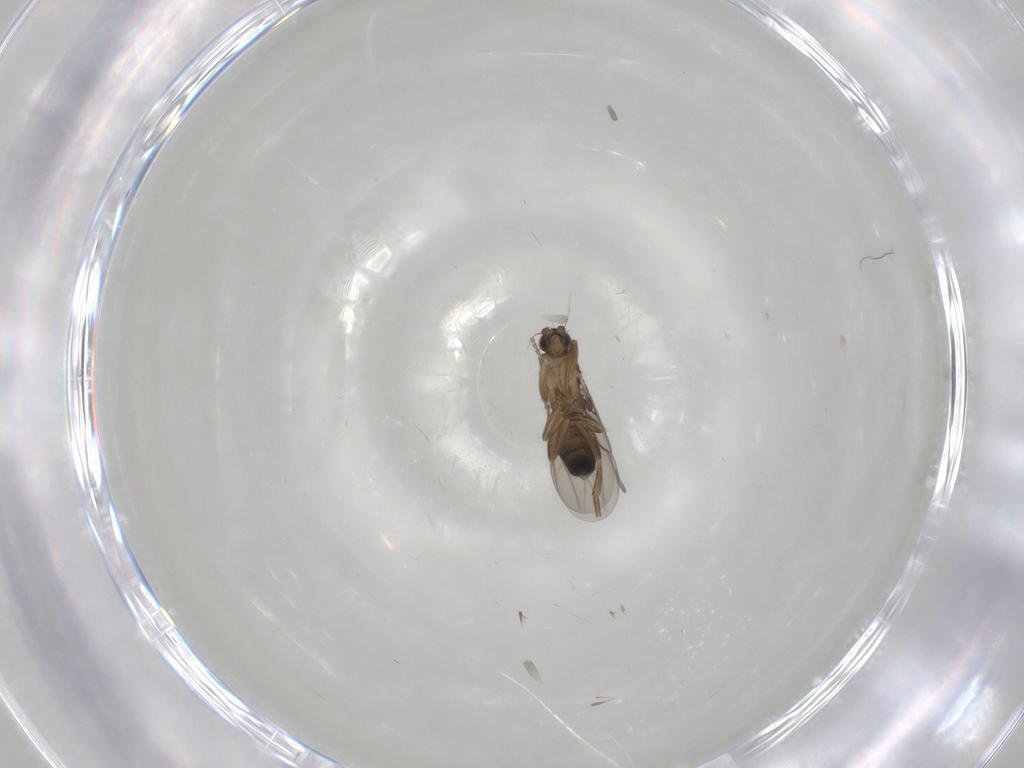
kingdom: Animalia
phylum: Arthropoda
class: Insecta
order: Diptera
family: Phoridae
